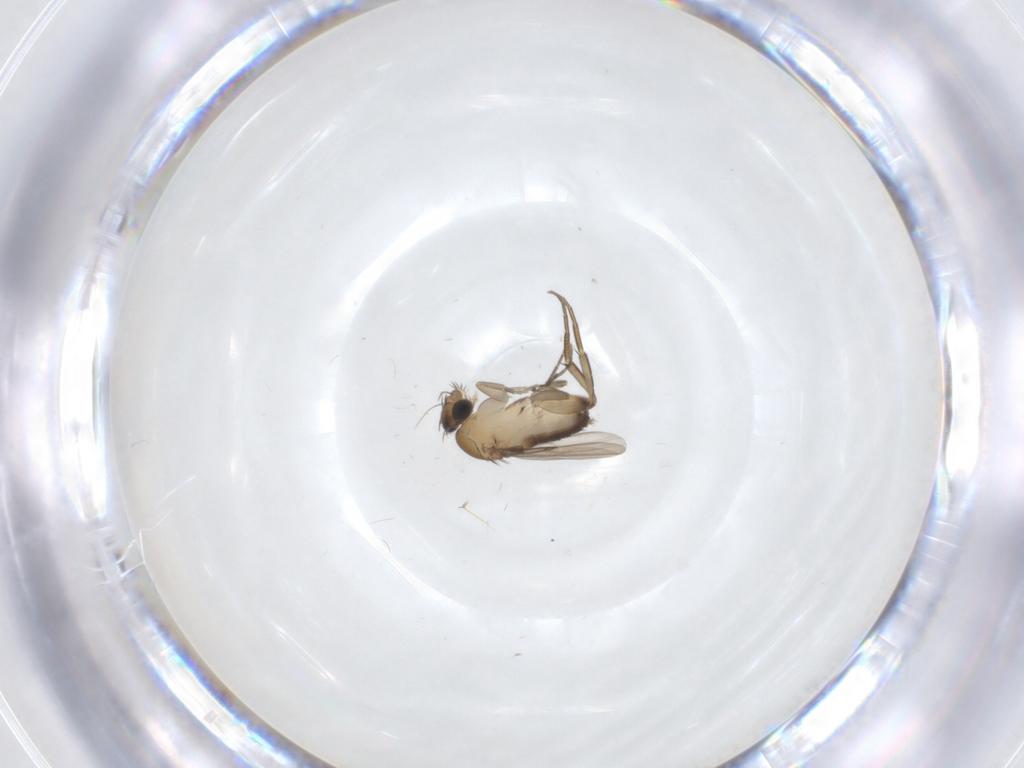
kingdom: Animalia
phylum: Arthropoda
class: Insecta
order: Diptera
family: Phoridae
